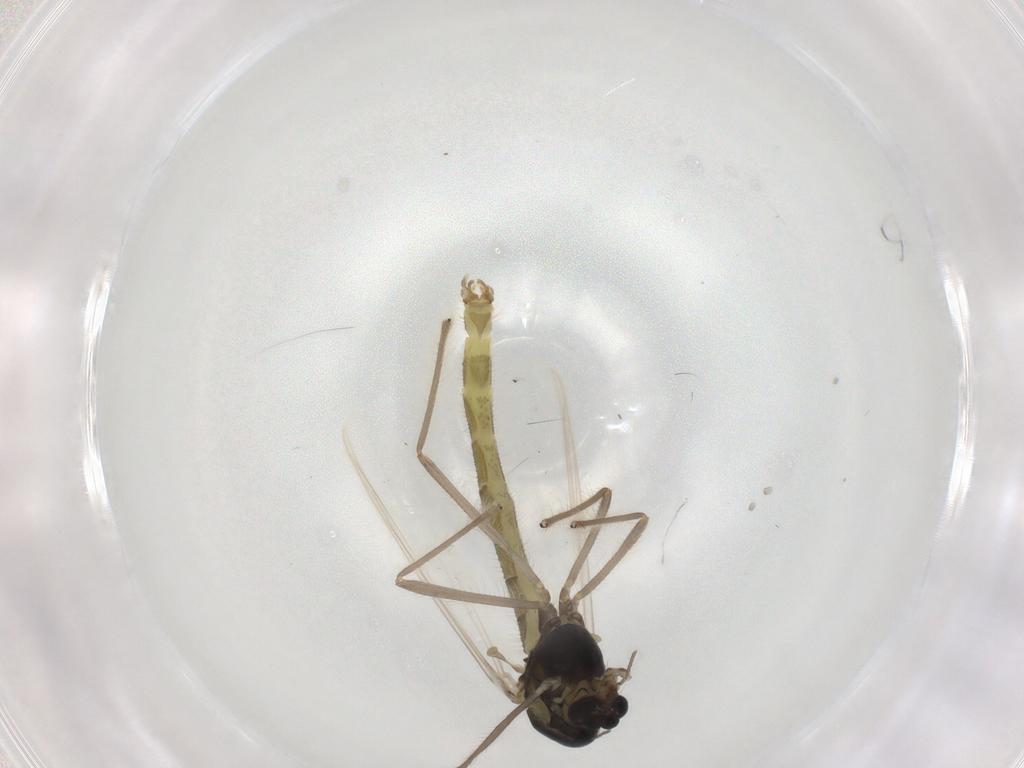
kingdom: Animalia
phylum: Arthropoda
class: Insecta
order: Diptera
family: Chironomidae
